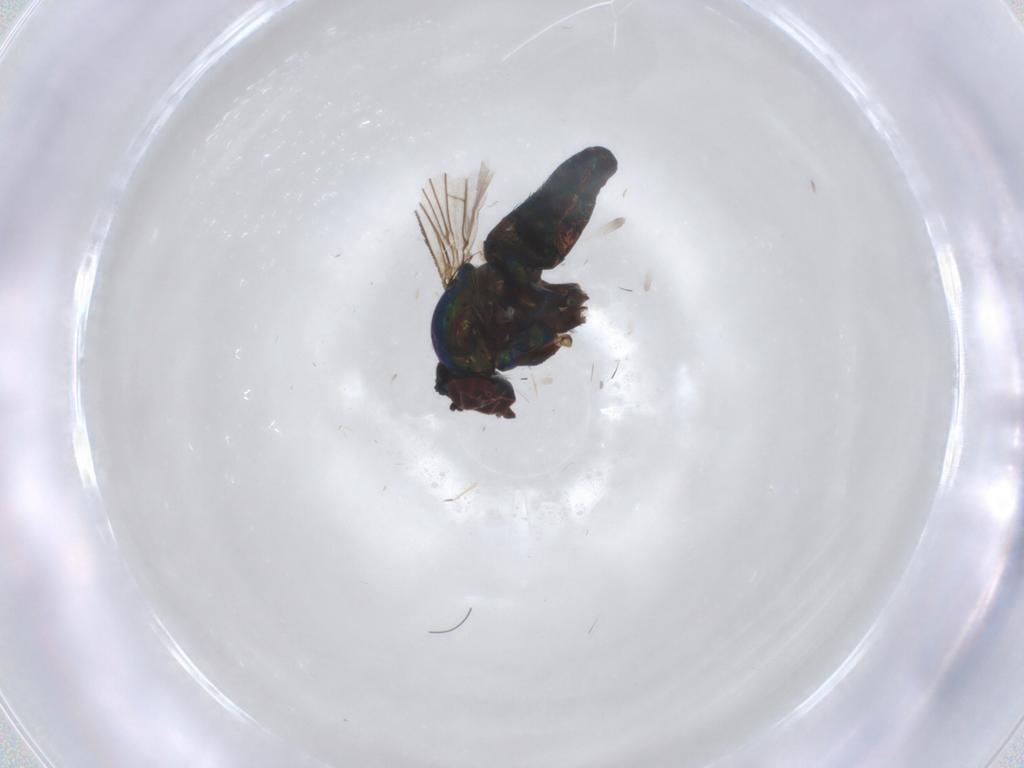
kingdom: Animalia
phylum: Arthropoda
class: Insecta
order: Diptera
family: Dolichopodidae
